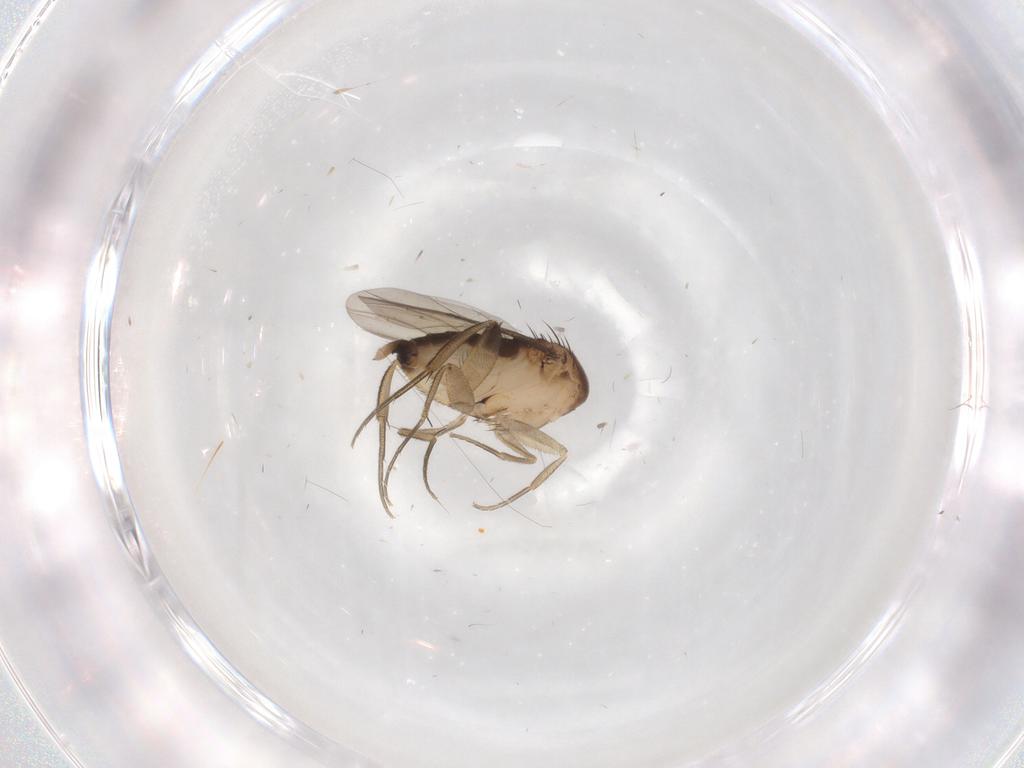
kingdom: Animalia
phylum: Arthropoda
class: Insecta
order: Diptera
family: Phoridae
